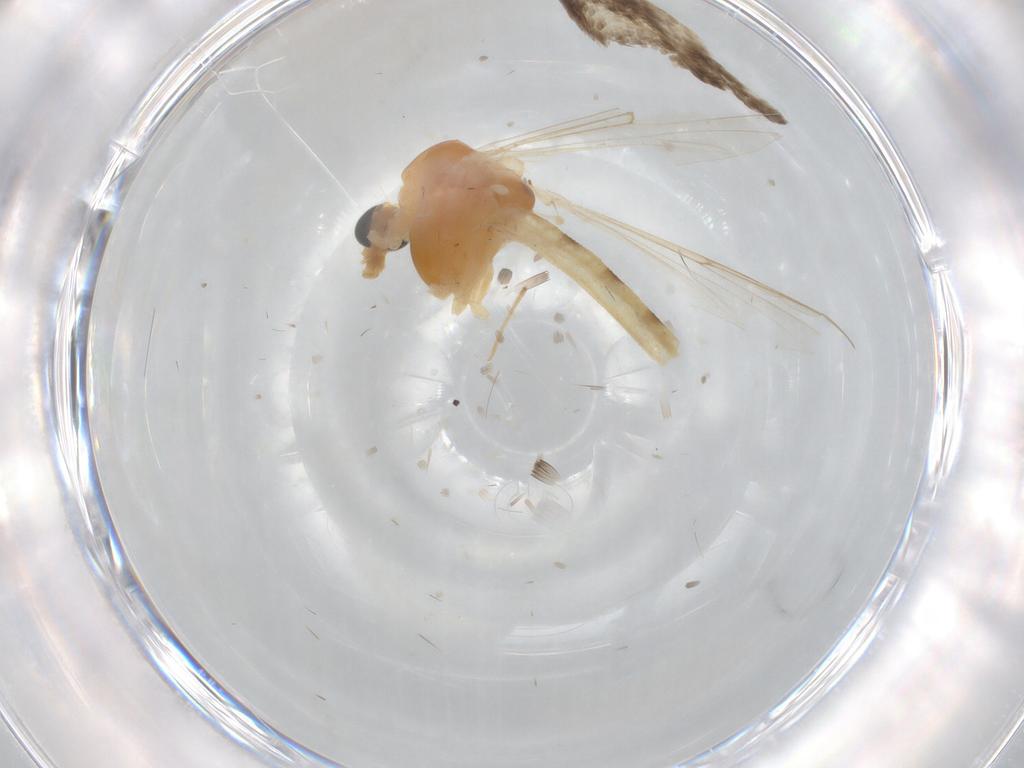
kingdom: Animalia
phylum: Arthropoda
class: Insecta
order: Diptera
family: Chironomidae
